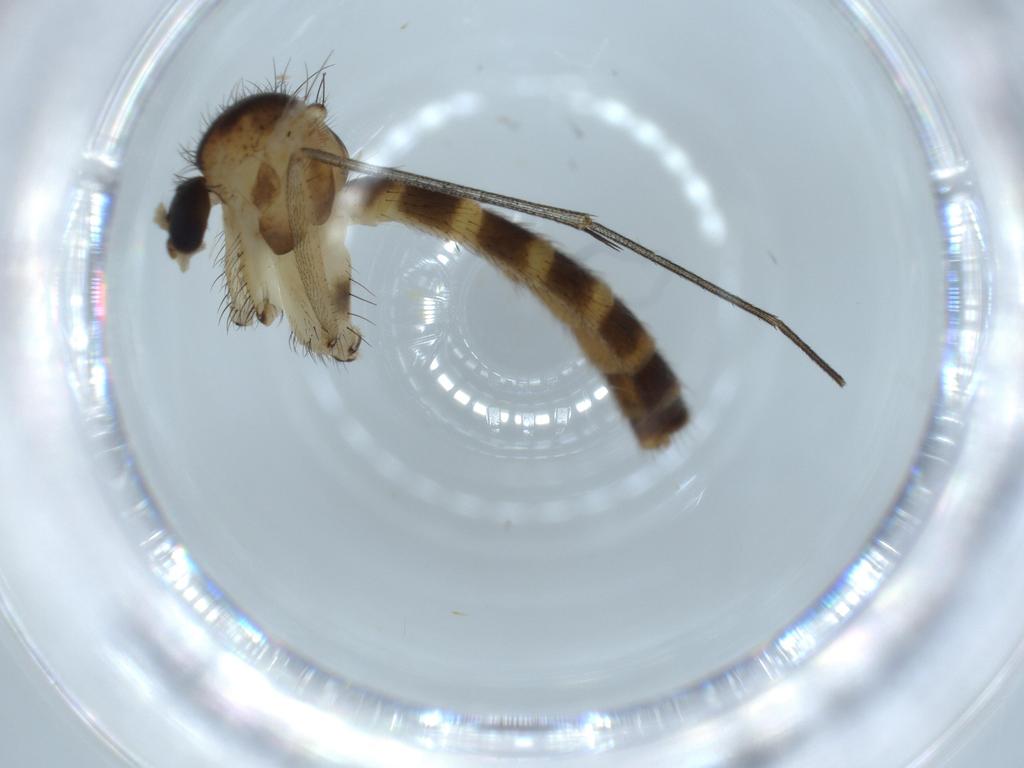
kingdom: Animalia
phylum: Arthropoda
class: Insecta
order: Diptera
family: Mycetophilidae
